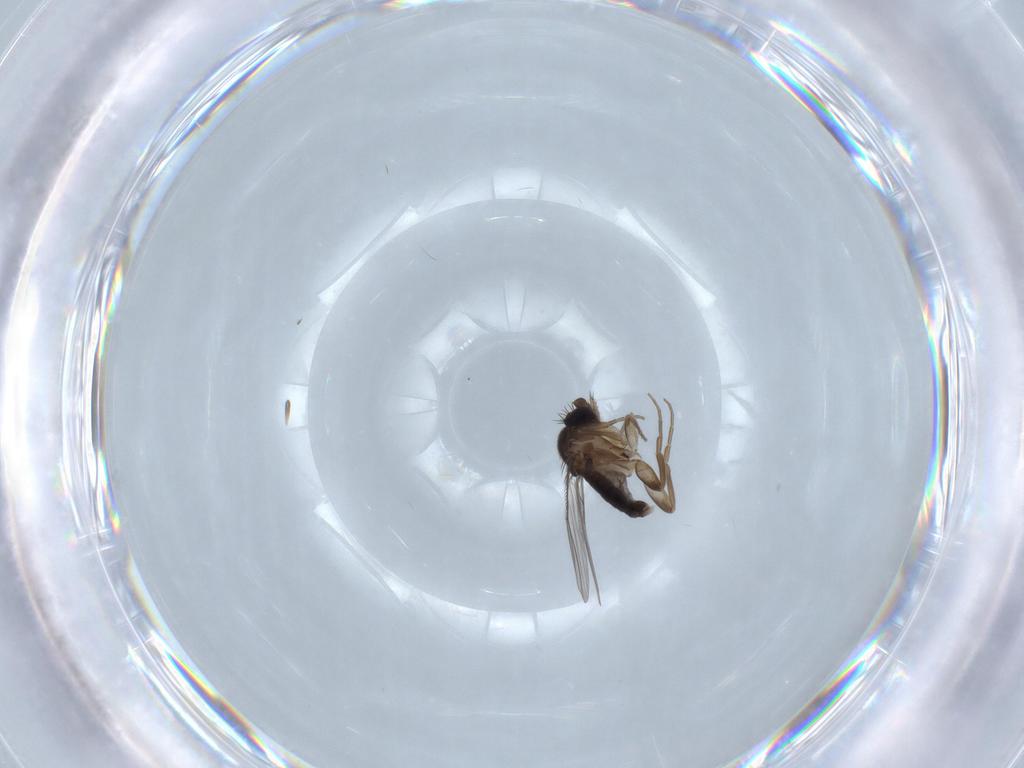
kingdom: Animalia
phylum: Arthropoda
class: Insecta
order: Diptera
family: Phoridae
